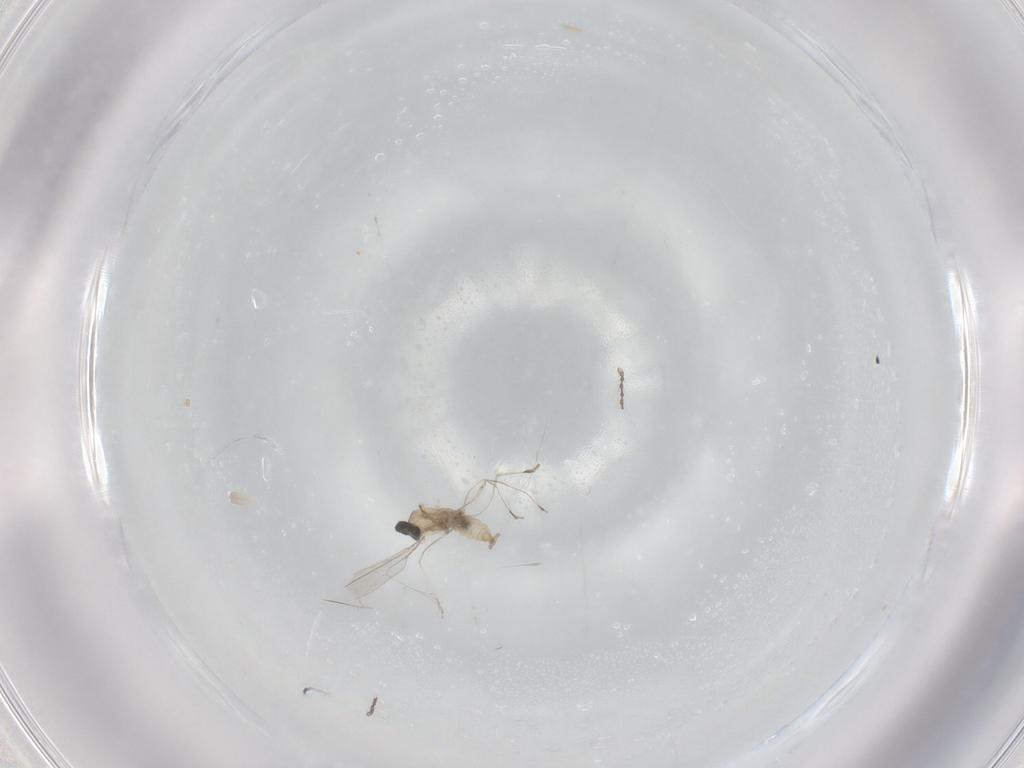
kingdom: Animalia
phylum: Arthropoda
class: Insecta
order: Diptera
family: Cecidomyiidae
